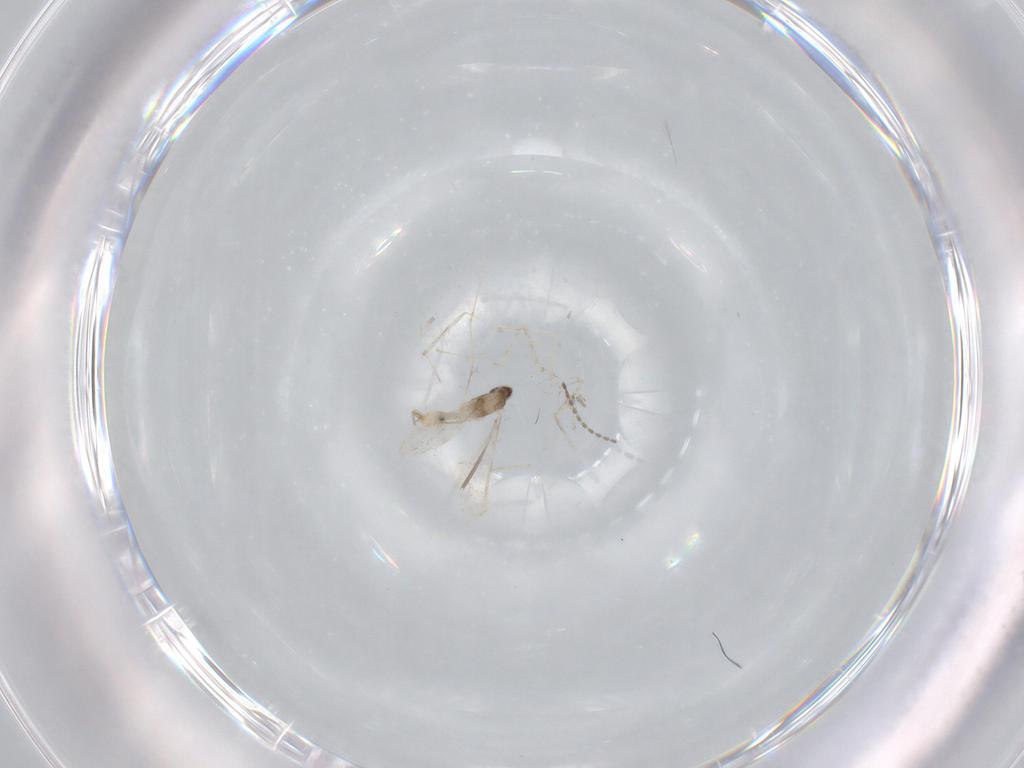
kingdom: Animalia
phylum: Arthropoda
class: Insecta
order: Diptera
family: Cecidomyiidae
